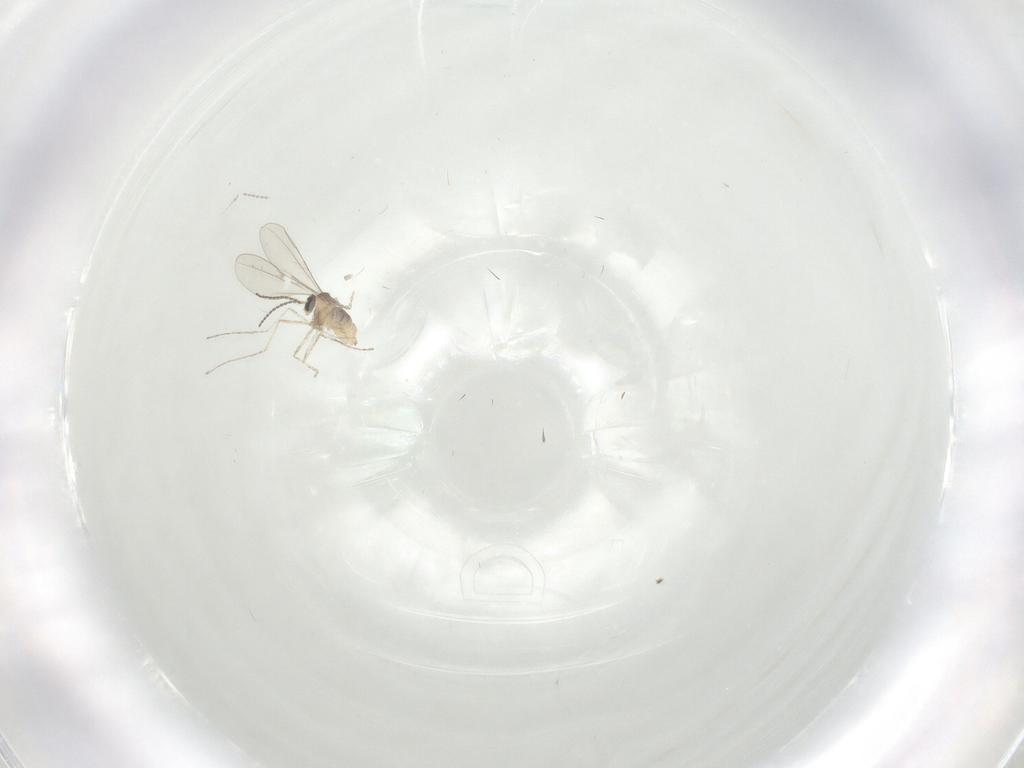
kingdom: Animalia
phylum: Arthropoda
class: Insecta
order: Diptera
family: Cecidomyiidae
